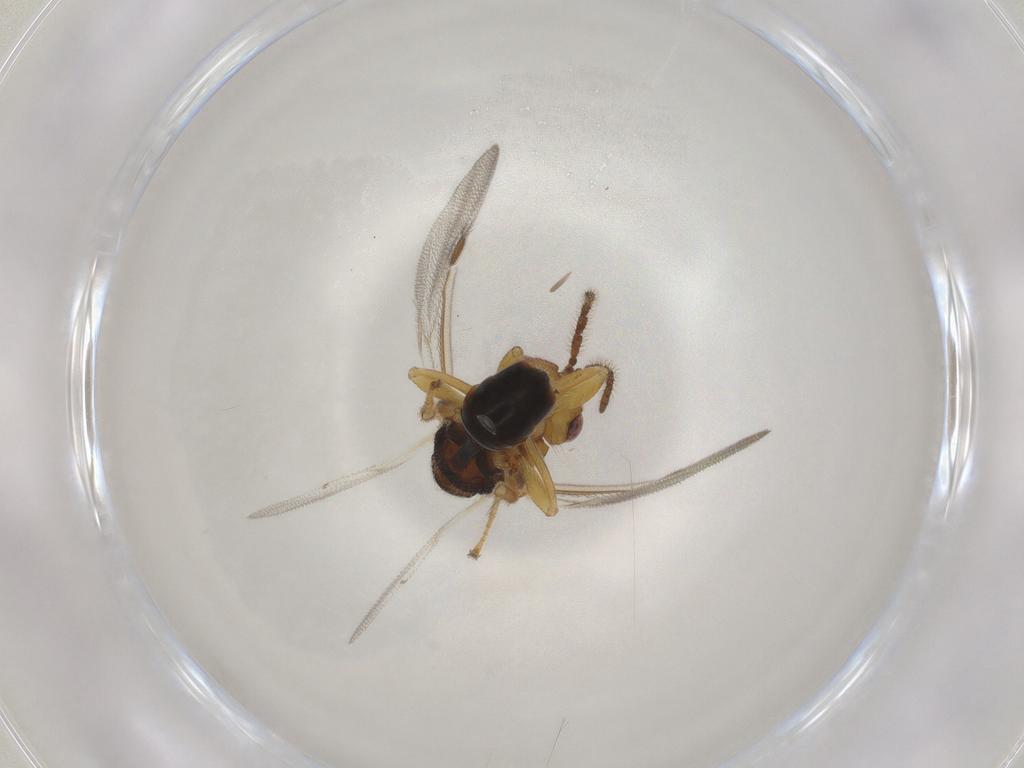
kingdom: Animalia
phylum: Arthropoda
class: Insecta
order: Hymenoptera
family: Eurytomidae
